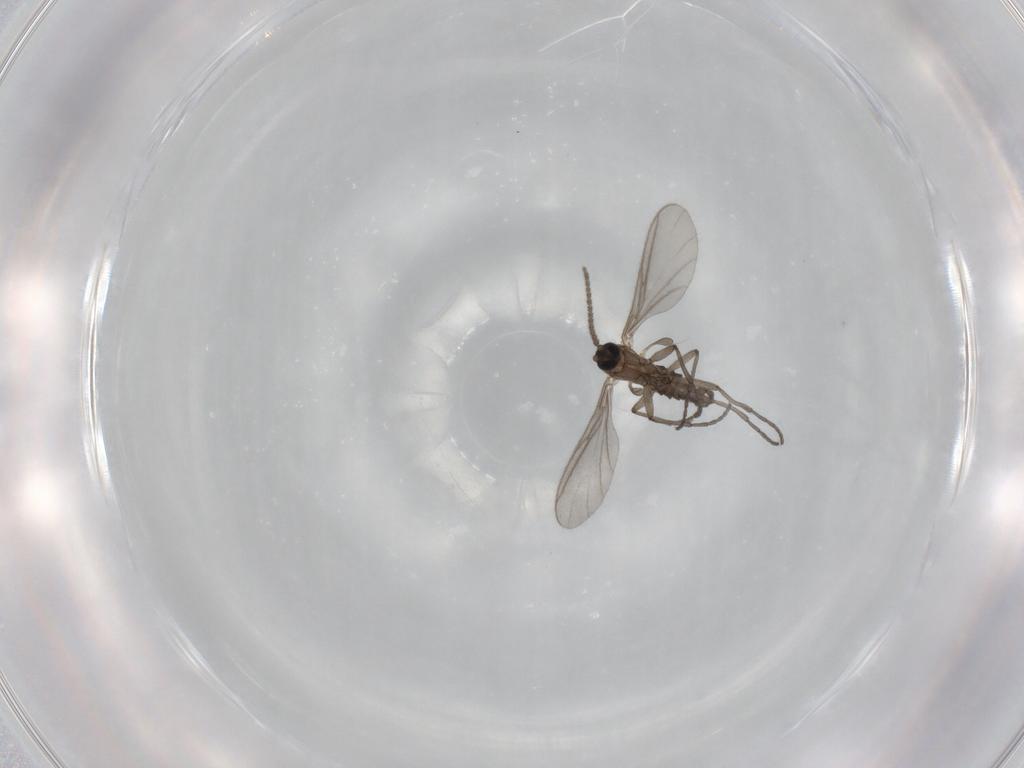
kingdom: Animalia
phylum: Arthropoda
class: Insecta
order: Diptera
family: Sciaridae
